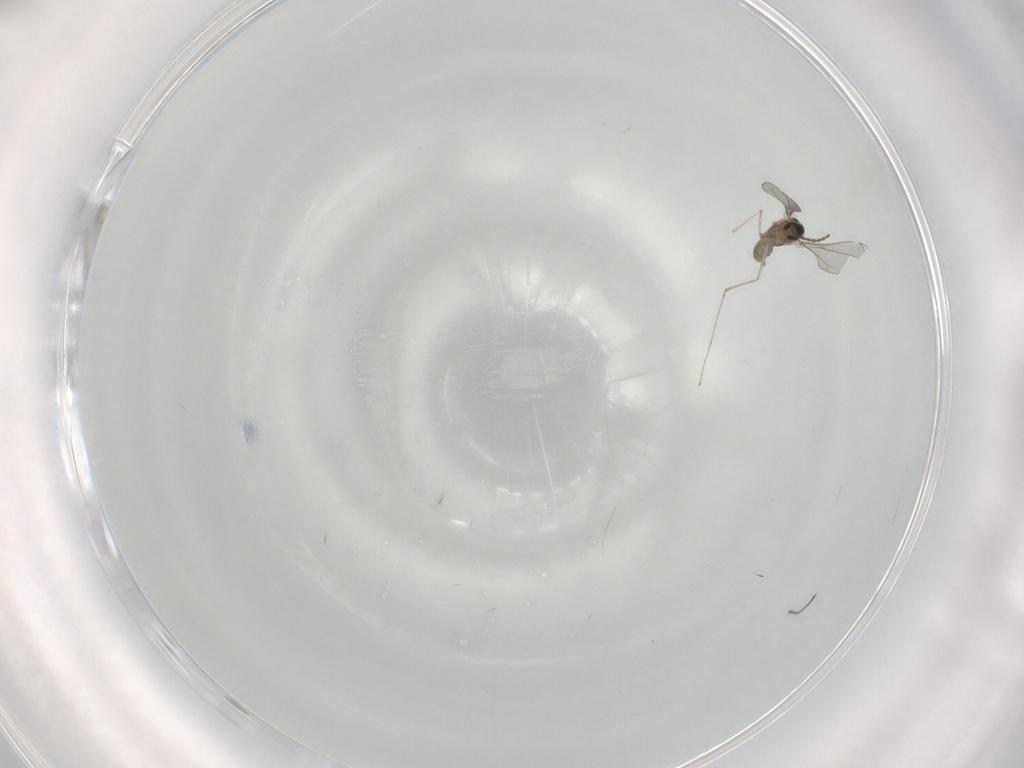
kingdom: Animalia
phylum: Arthropoda
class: Insecta
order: Diptera
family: Cecidomyiidae
